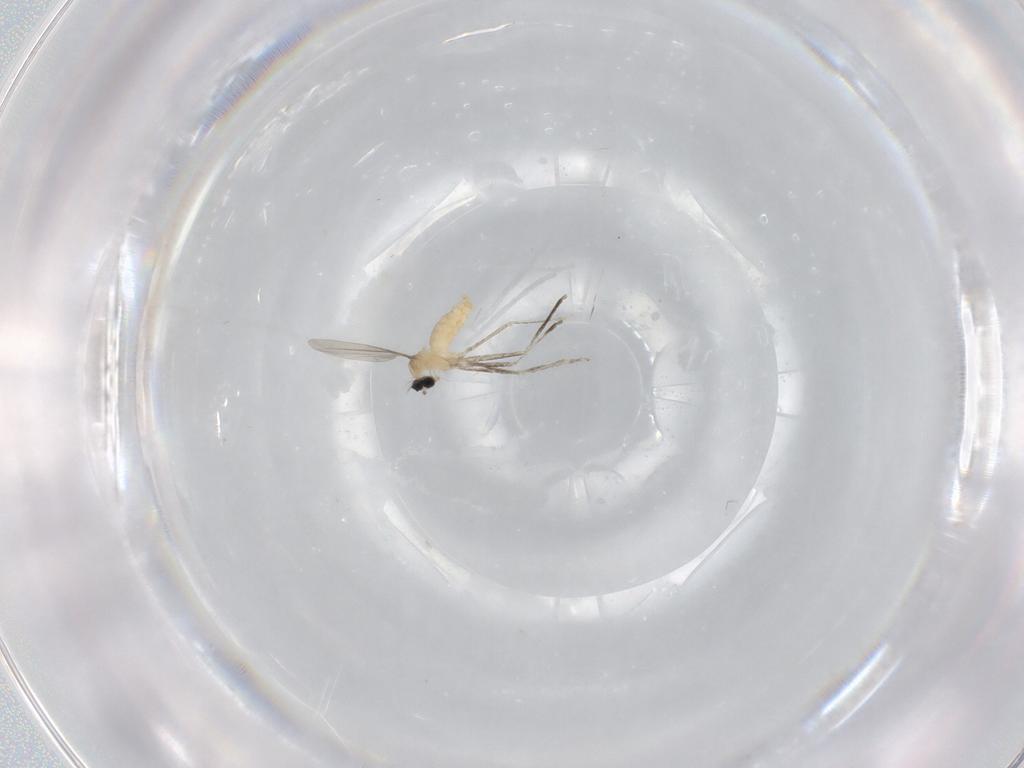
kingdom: Animalia
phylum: Arthropoda
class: Insecta
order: Diptera
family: Cecidomyiidae
